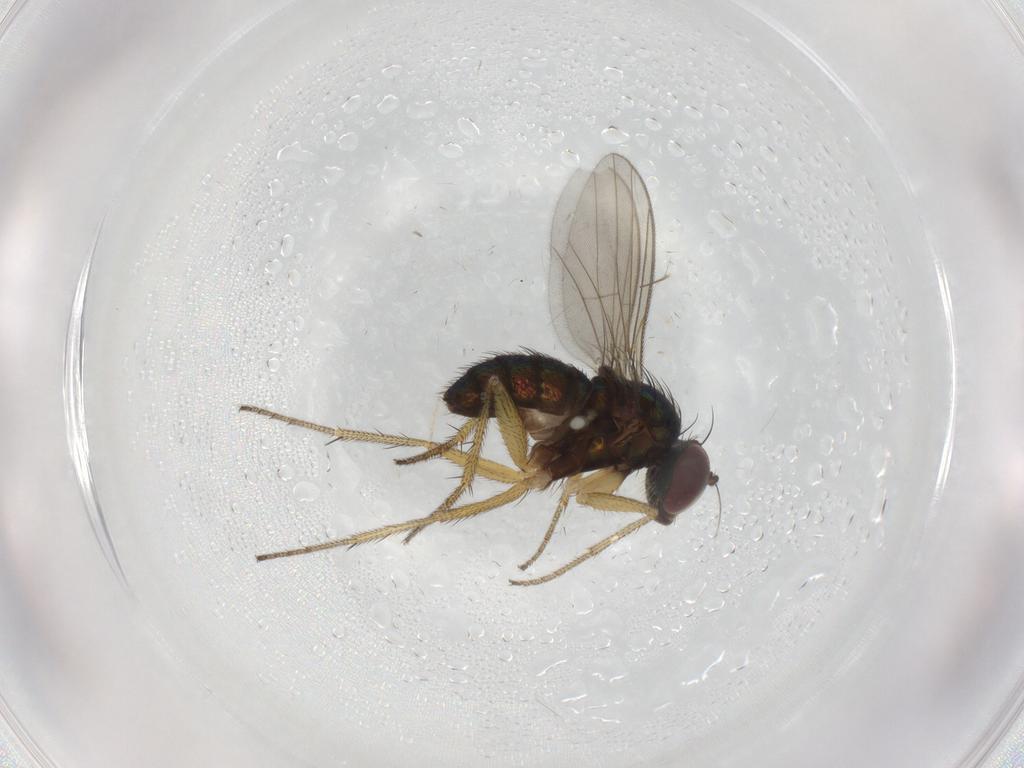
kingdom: Animalia
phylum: Arthropoda
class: Insecta
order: Diptera
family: Chironomidae
